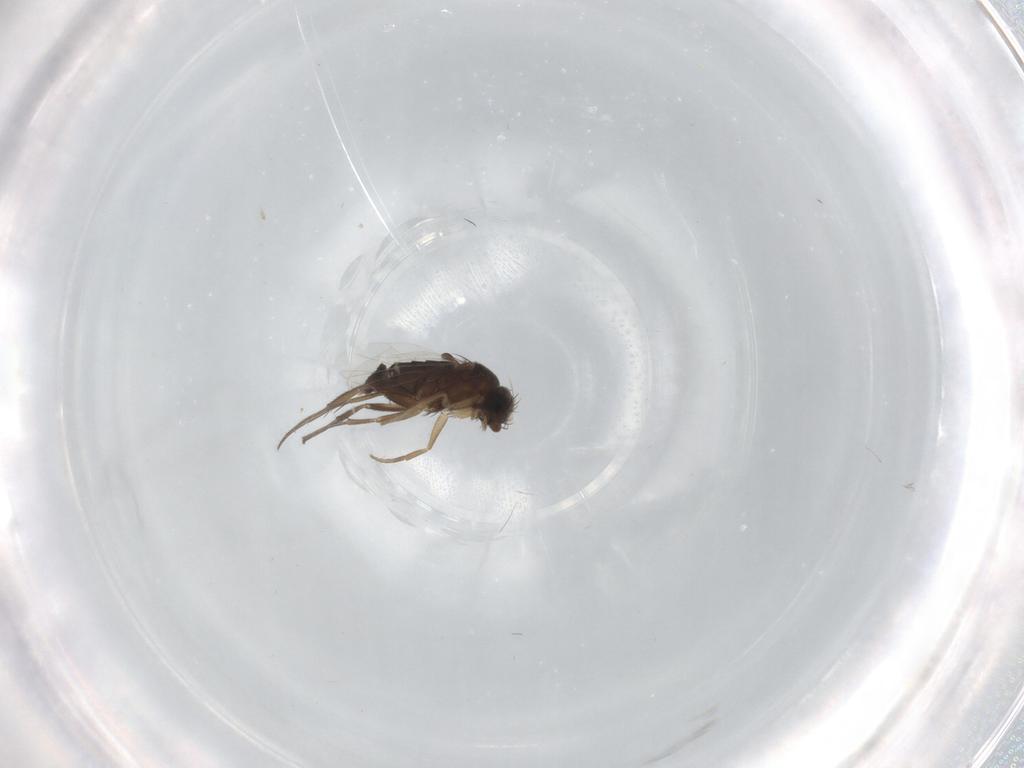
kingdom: Animalia
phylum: Arthropoda
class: Insecta
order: Diptera
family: Phoridae
